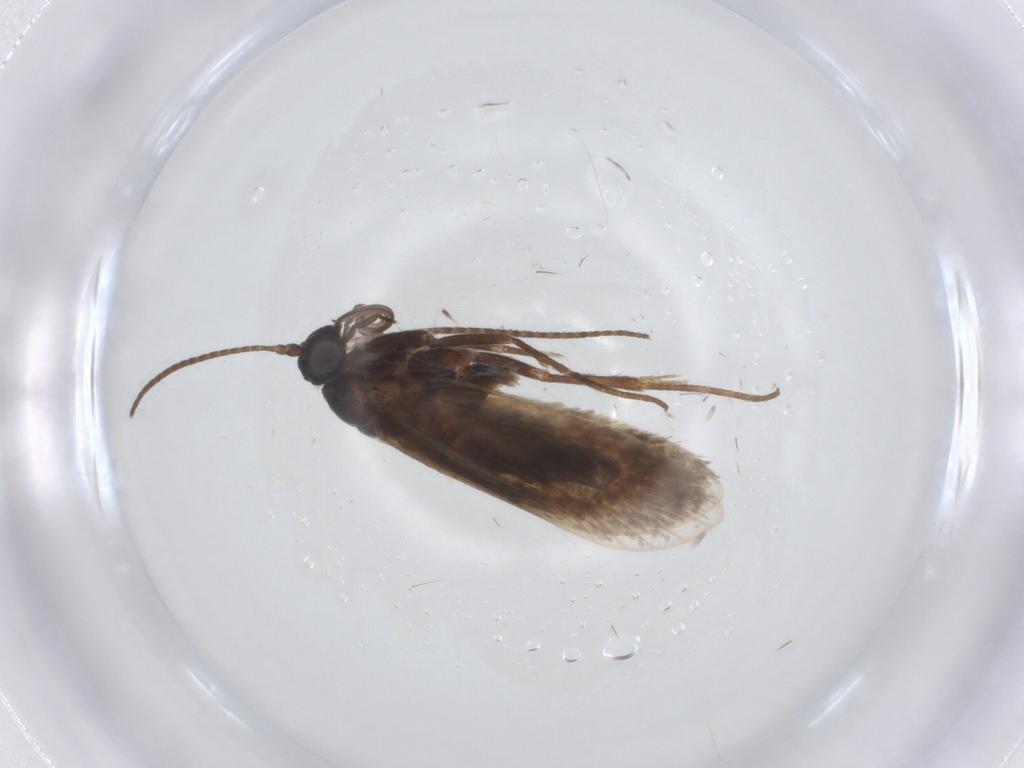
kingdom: Animalia
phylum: Arthropoda
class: Insecta
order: Lepidoptera
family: Adelidae
